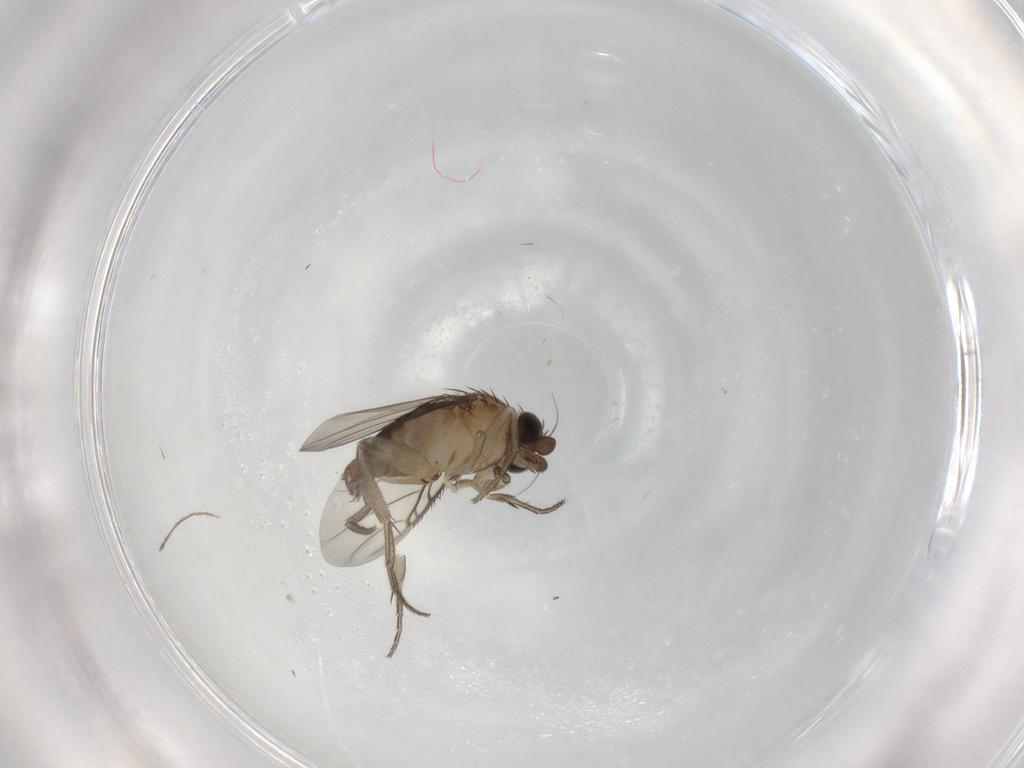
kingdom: Animalia
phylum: Arthropoda
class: Insecta
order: Diptera
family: Phoridae
